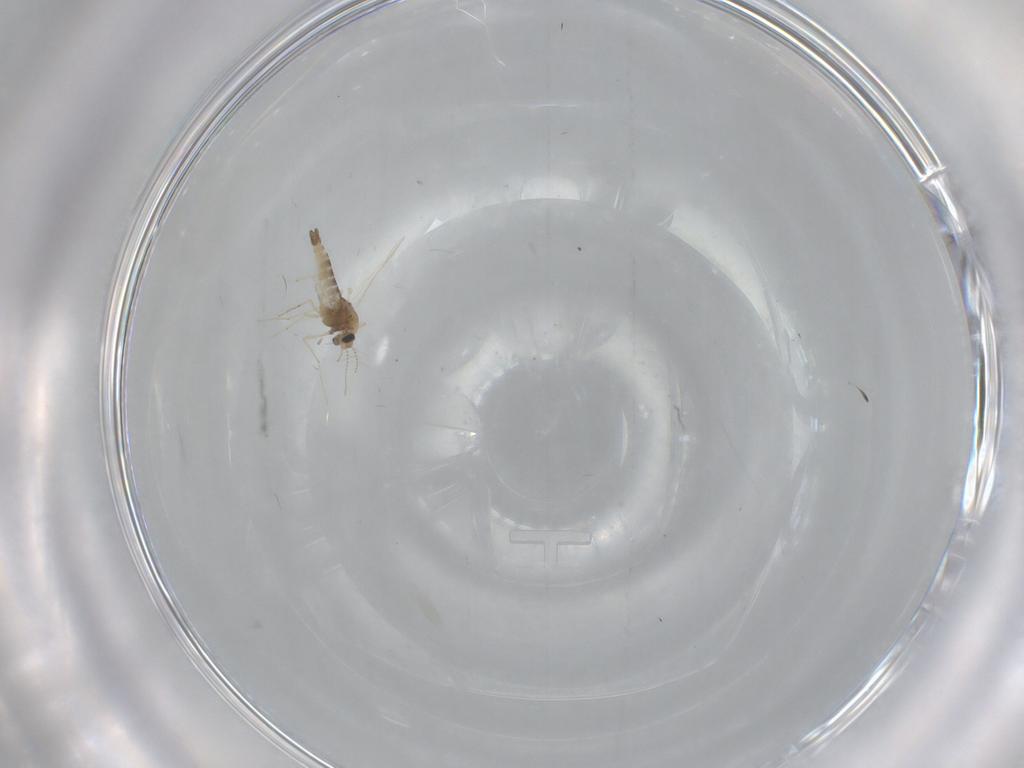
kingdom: Animalia
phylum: Arthropoda
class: Insecta
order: Diptera
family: Chironomidae
